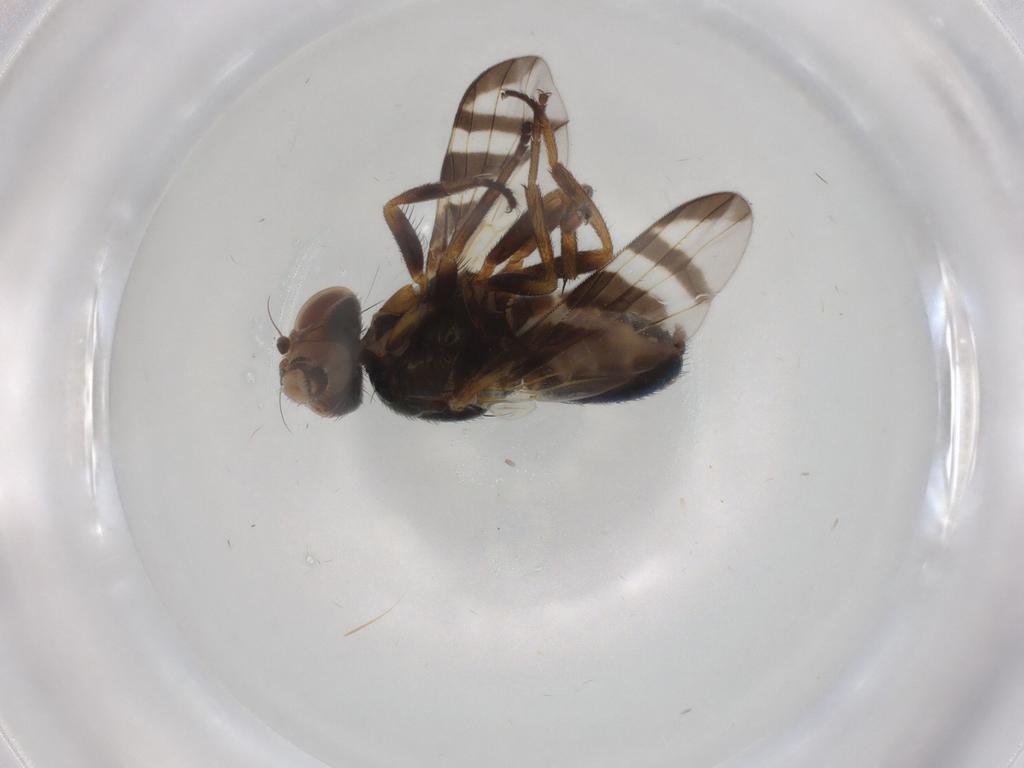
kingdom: Animalia
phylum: Arthropoda
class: Insecta
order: Diptera
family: Platystomatidae
